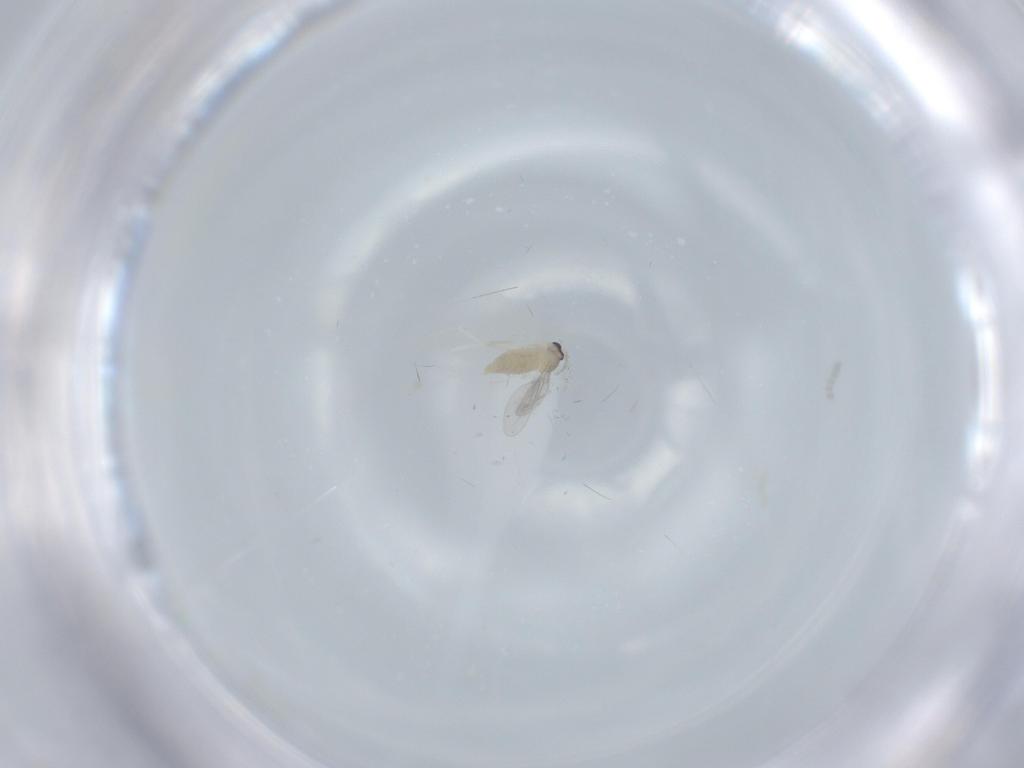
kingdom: Animalia
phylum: Arthropoda
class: Insecta
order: Diptera
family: Cecidomyiidae
